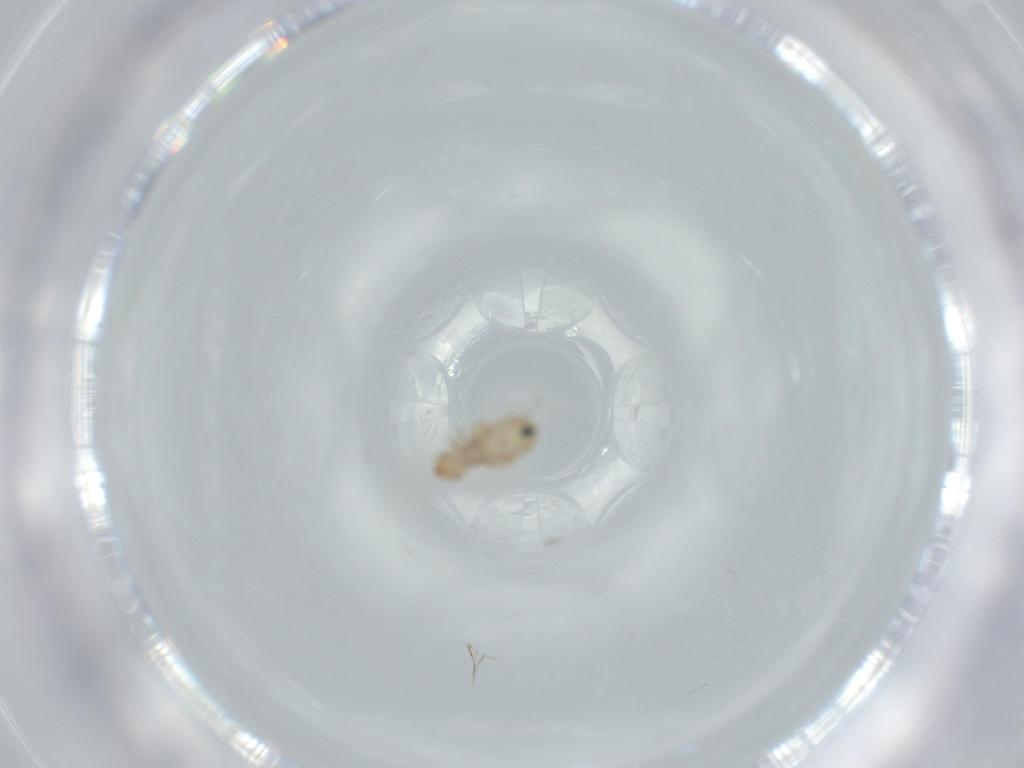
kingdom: Animalia
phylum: Arthropoda
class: Insecta
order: Psocodea
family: Liposcelididae
